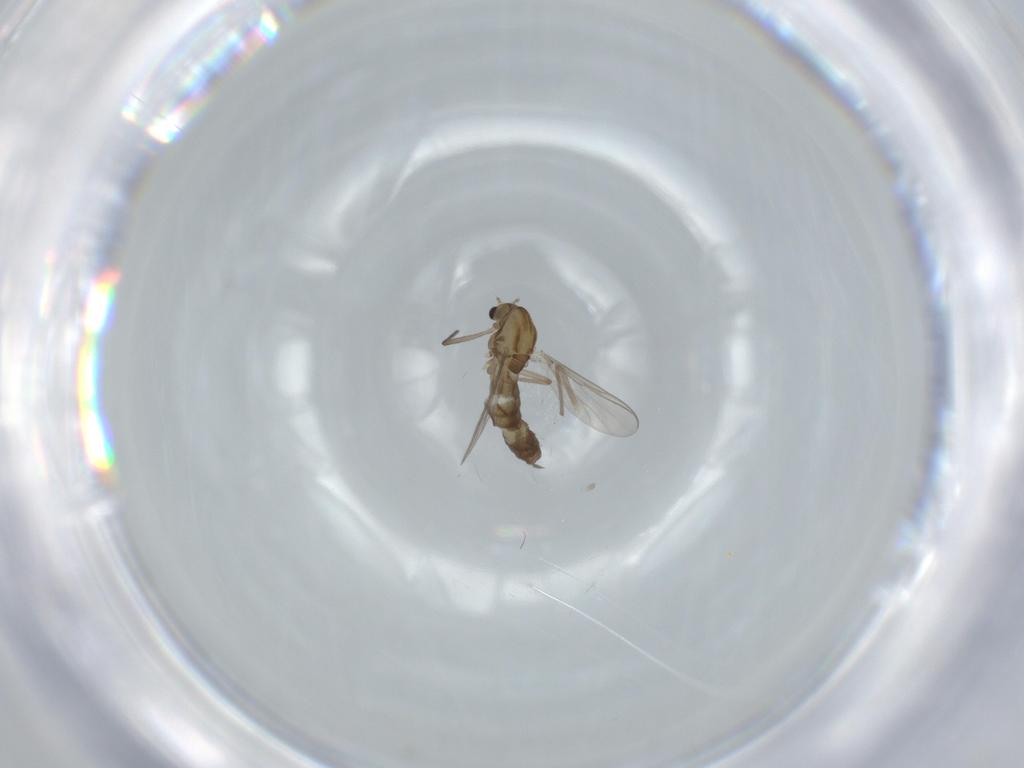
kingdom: Animalia
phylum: Arthropoda
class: Insecta
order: Diptera
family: Chironomidae
